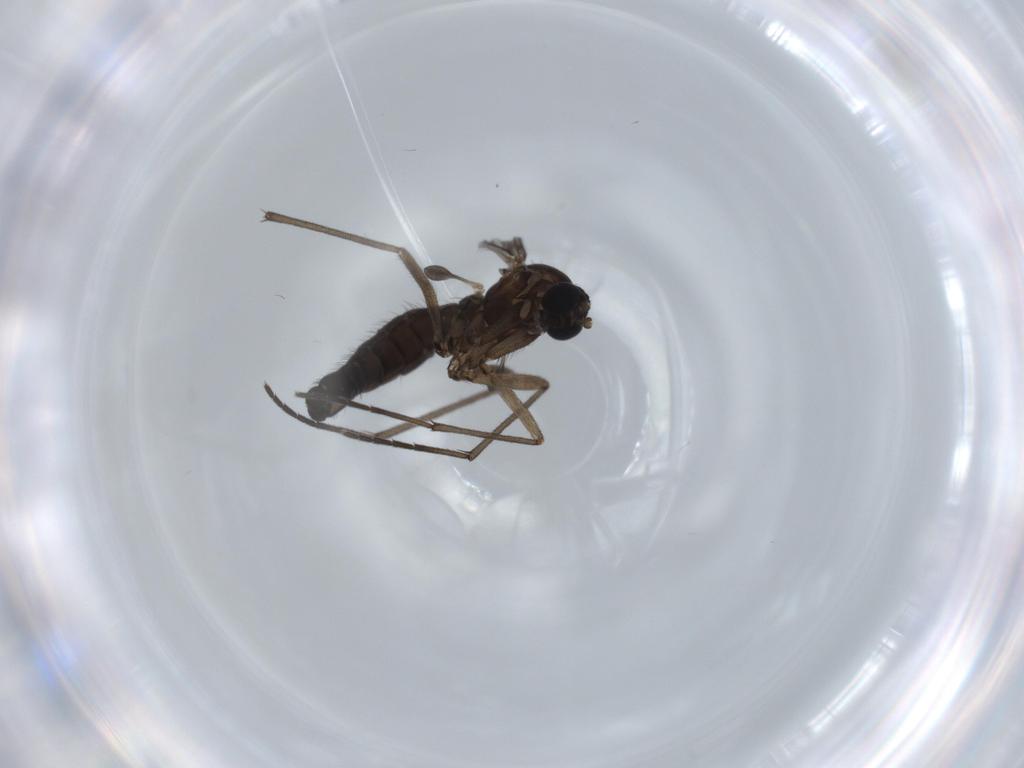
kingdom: Animalia
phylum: Arthropoda
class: Insecta
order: Diptera
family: Sciaridae
